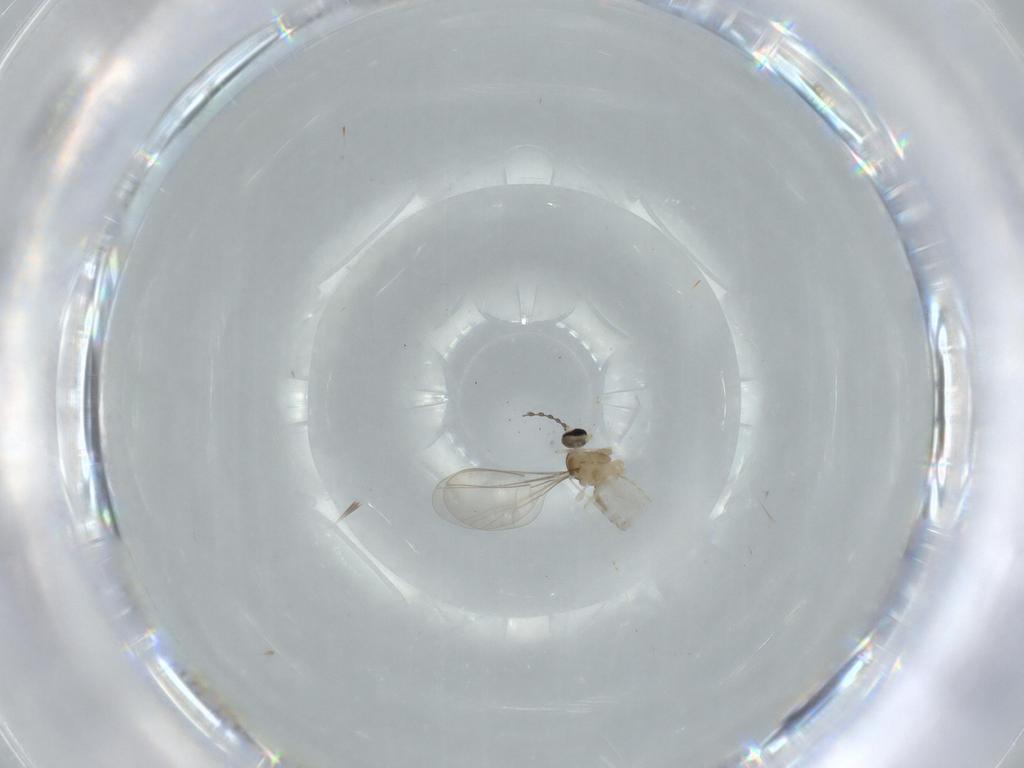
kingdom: Animalia
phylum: Arthropoda
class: Insecta
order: Diptera
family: Cecidomyiidae
